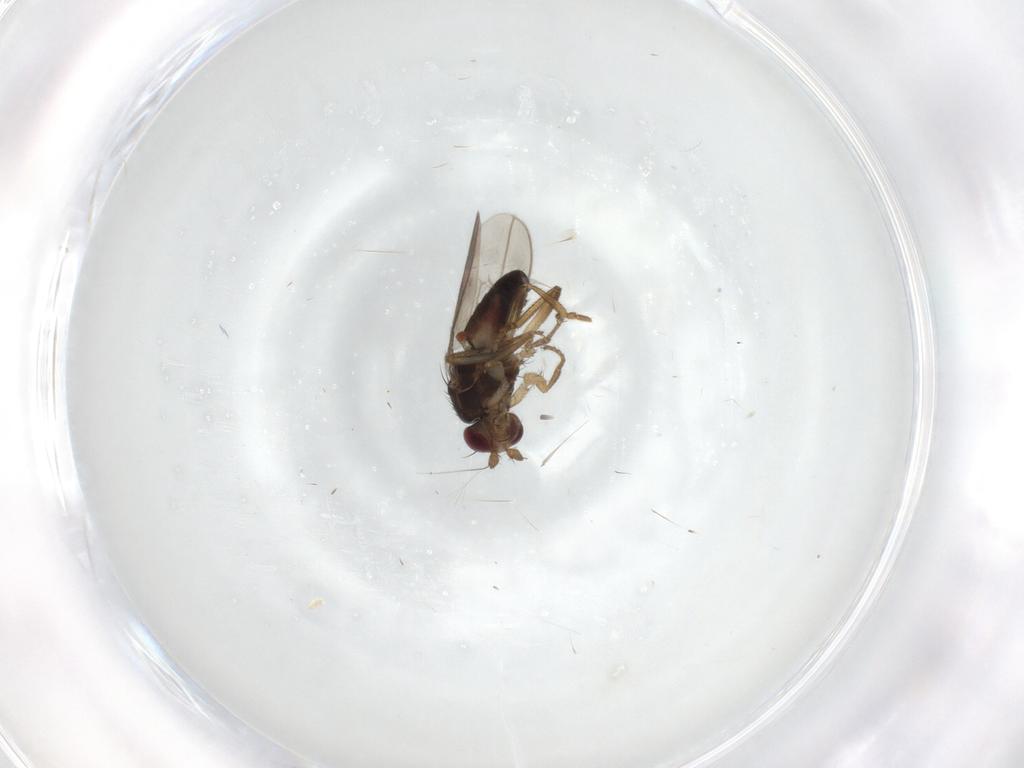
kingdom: Animalia
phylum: Arthropoda
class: Insecta
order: Diptera
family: Sphaeroceridae
